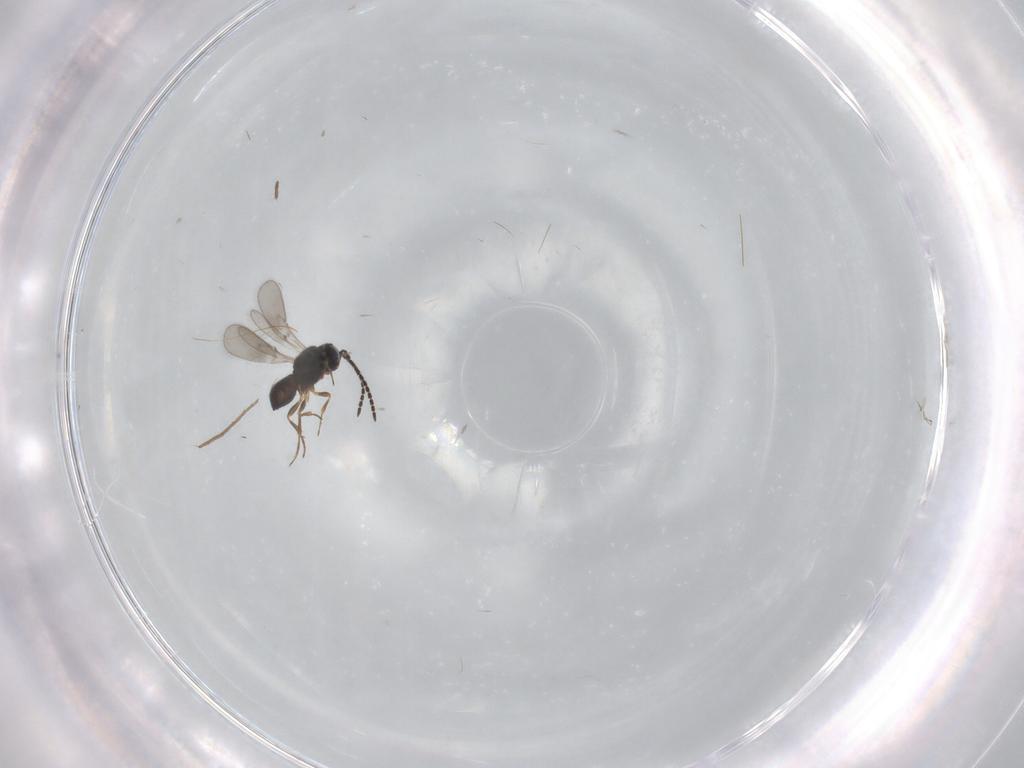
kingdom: Animalia
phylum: Arthropoda
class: Insecta
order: Hymenoptera
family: Scelionidae
